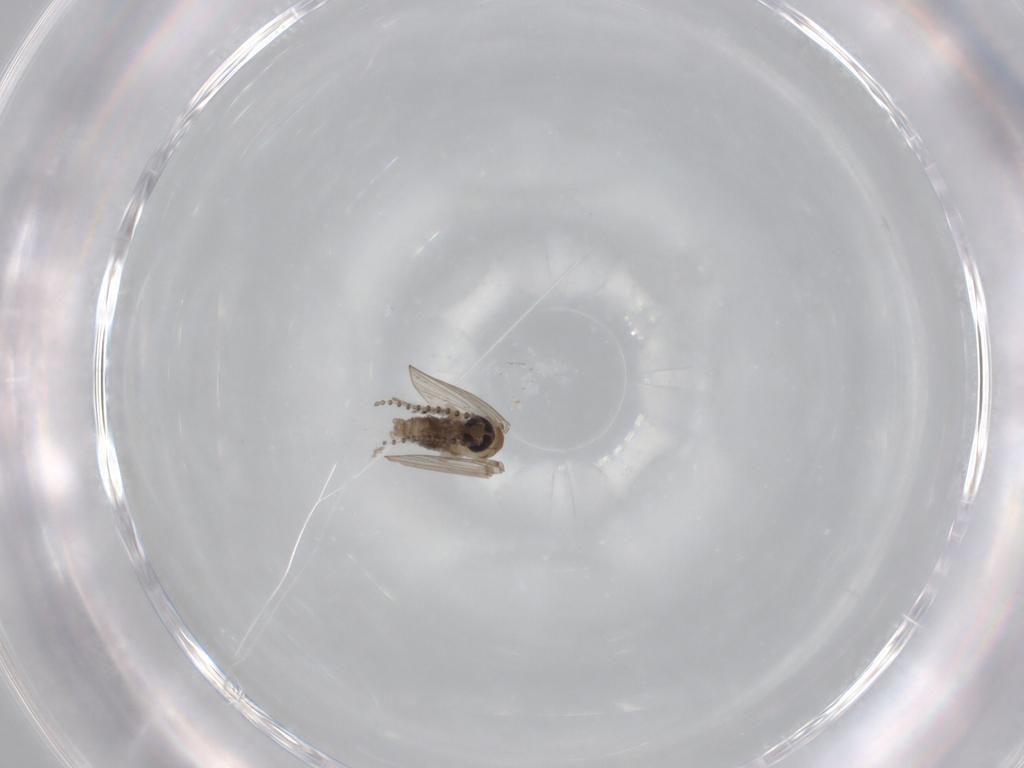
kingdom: Animalia
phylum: Arthropoda
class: Insecta
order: Diptera
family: Psychodidae
